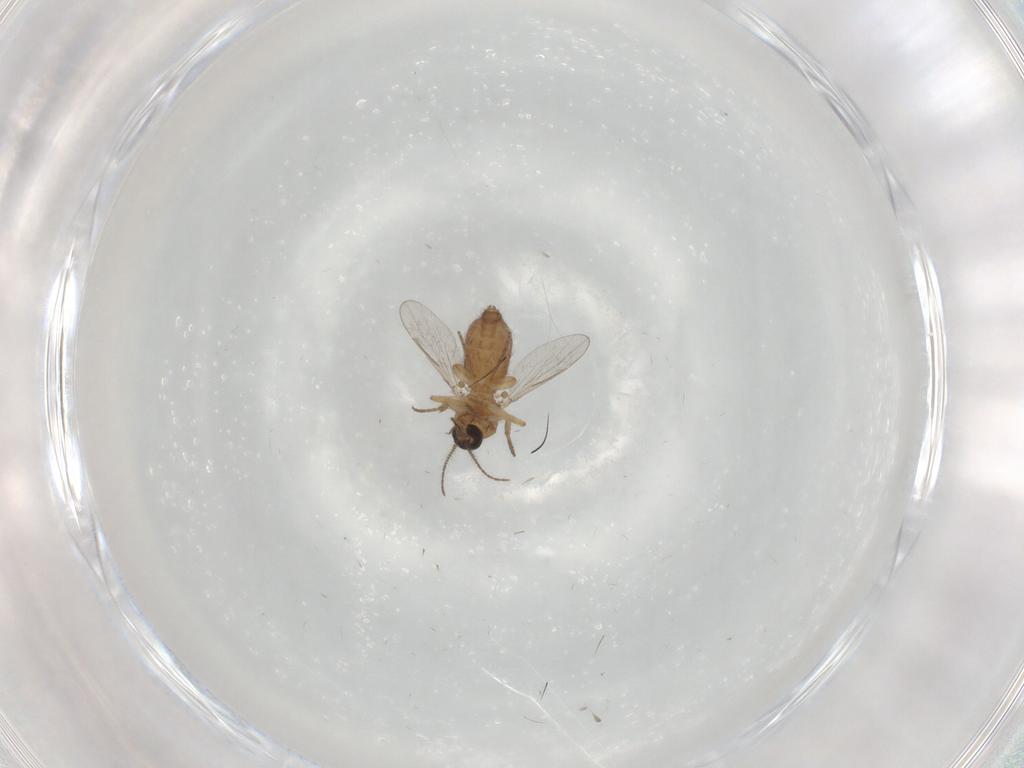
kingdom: Animalia
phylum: Arthropoda
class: Insecta
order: Diptera
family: Ceratopogonidae
